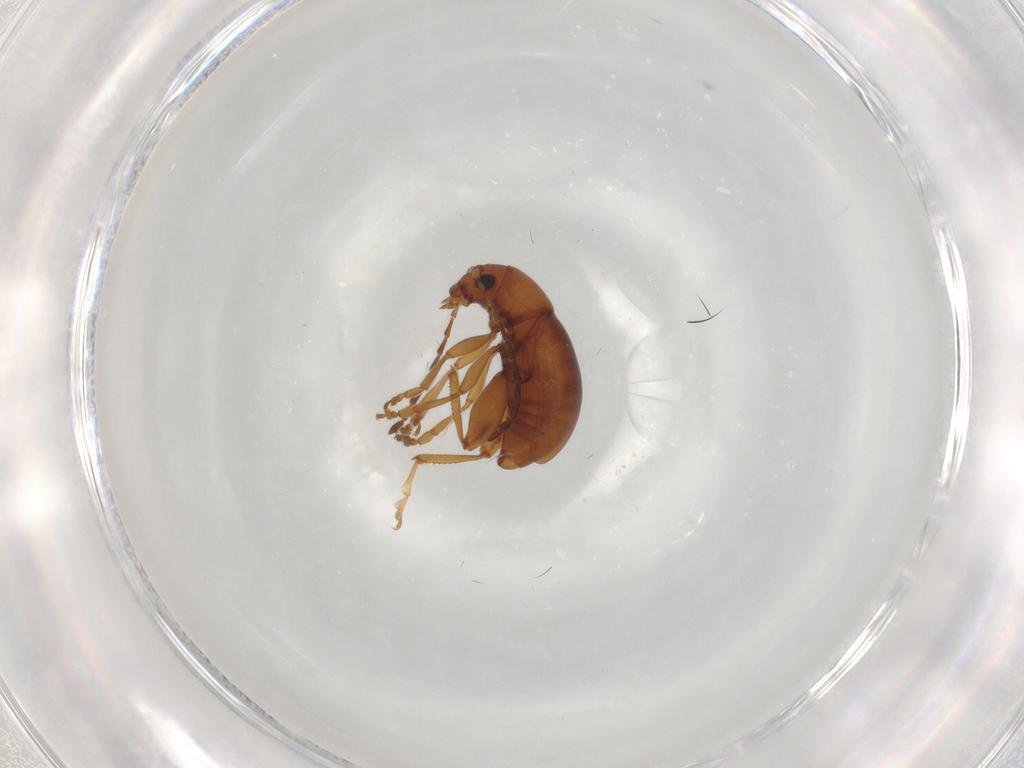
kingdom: Animalia
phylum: Arthropoda
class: Insecta
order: Coleoptera
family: Chrysomelidae
